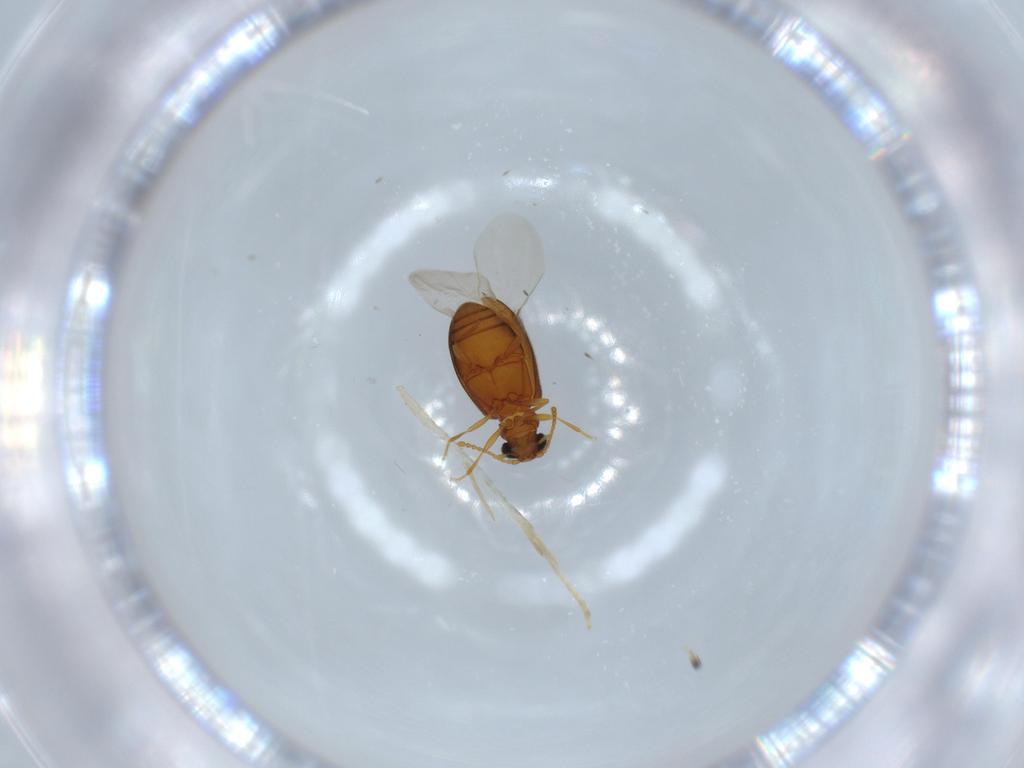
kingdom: Animalia
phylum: Arthropoda
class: Insecta
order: Coleoptera
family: Aderidae
